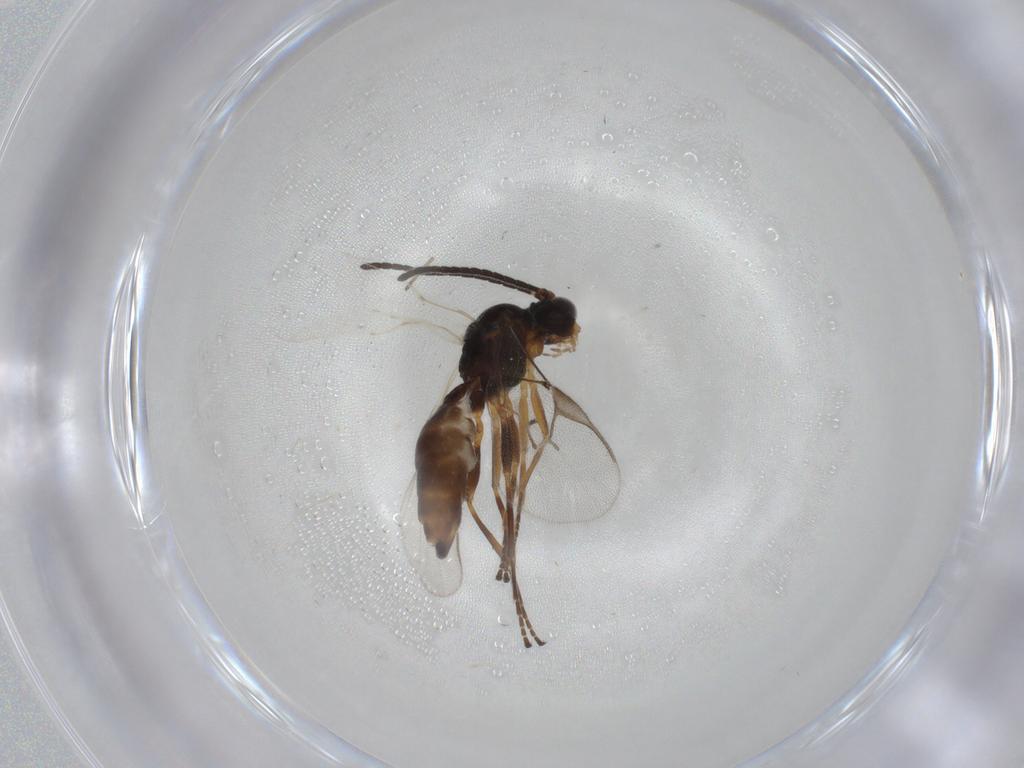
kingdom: Animalia
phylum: Arthropoda
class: Insecta
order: Hymenoptera
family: Braconidae
